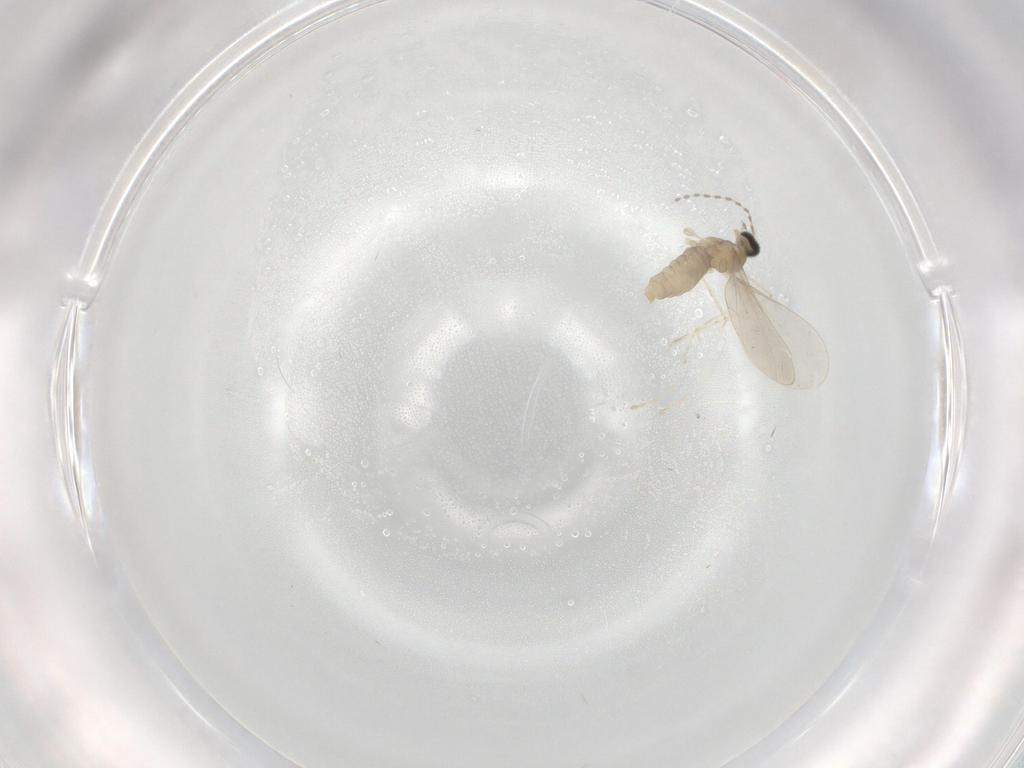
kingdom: Animalia
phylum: Arthropoda
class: Insecta
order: Diptera
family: Cecidomyiidae
